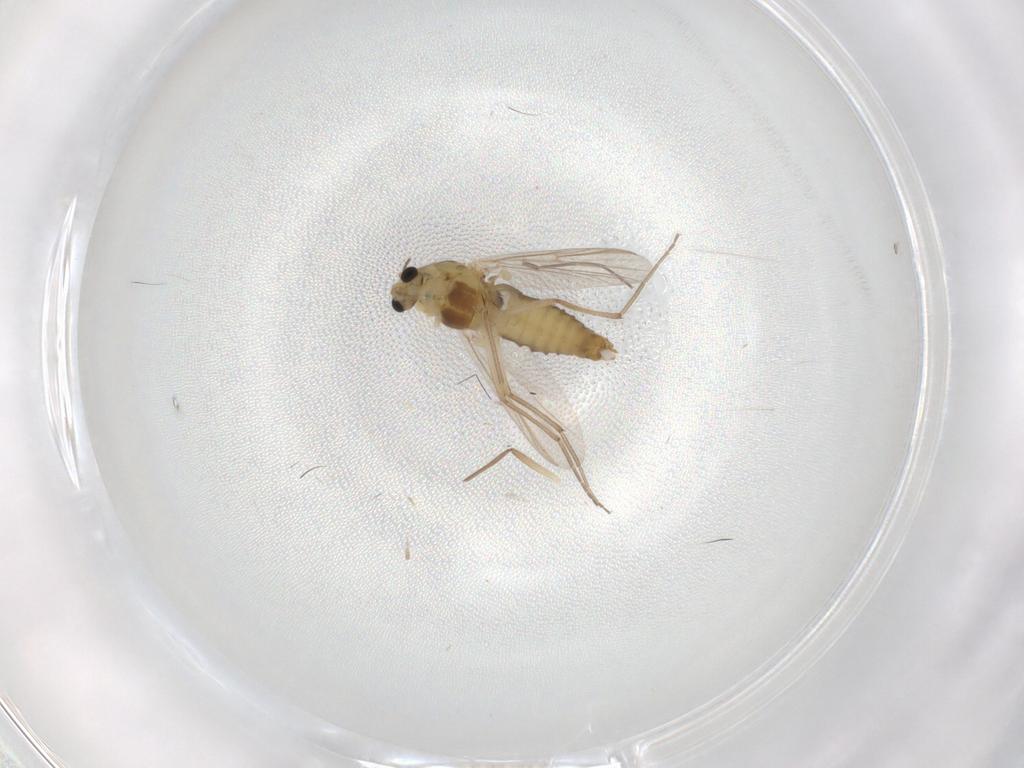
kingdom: Animalia
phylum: Arthropoda
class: Insecta
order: Diptera
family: Chironomidae
